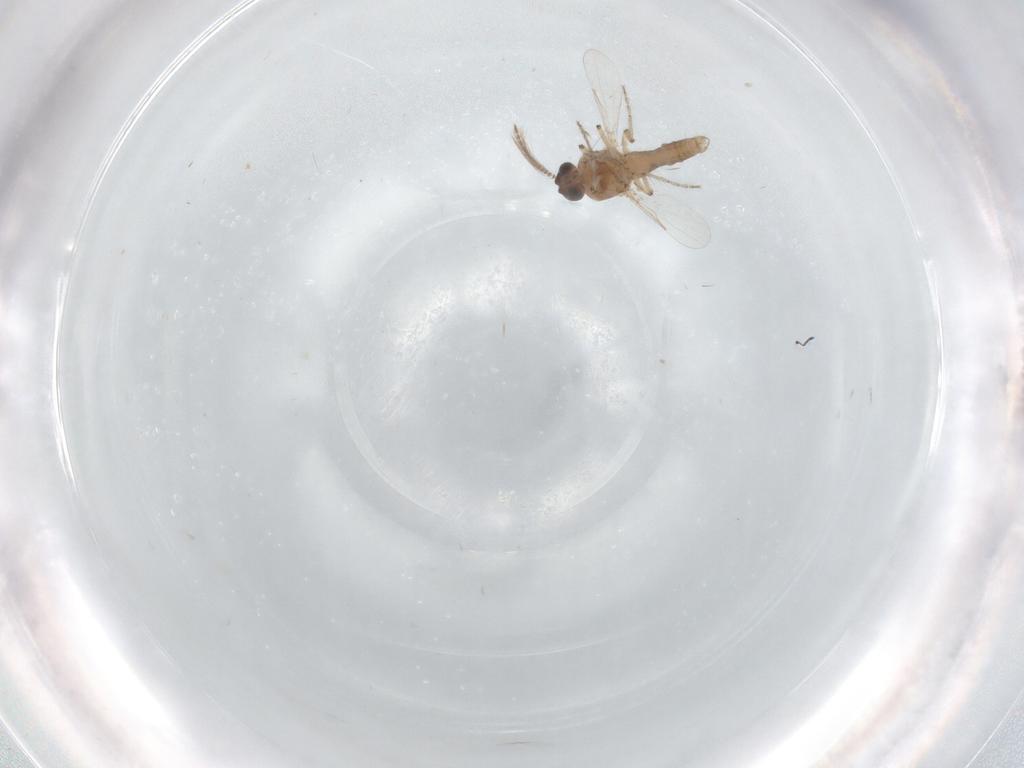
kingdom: Animalia
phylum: Arthropoda
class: Insecta
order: Diptera
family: Ceratopogonidae
